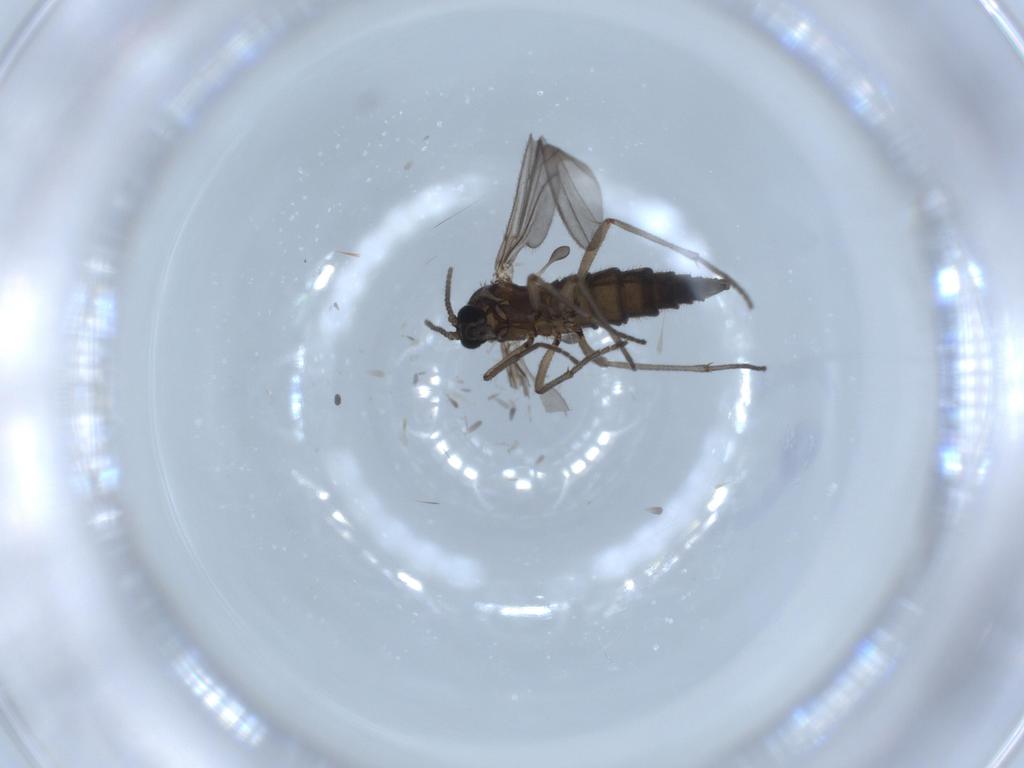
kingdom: Animalia
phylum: Arthropoda
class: Insecta
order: Diptera
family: Sciaridae
